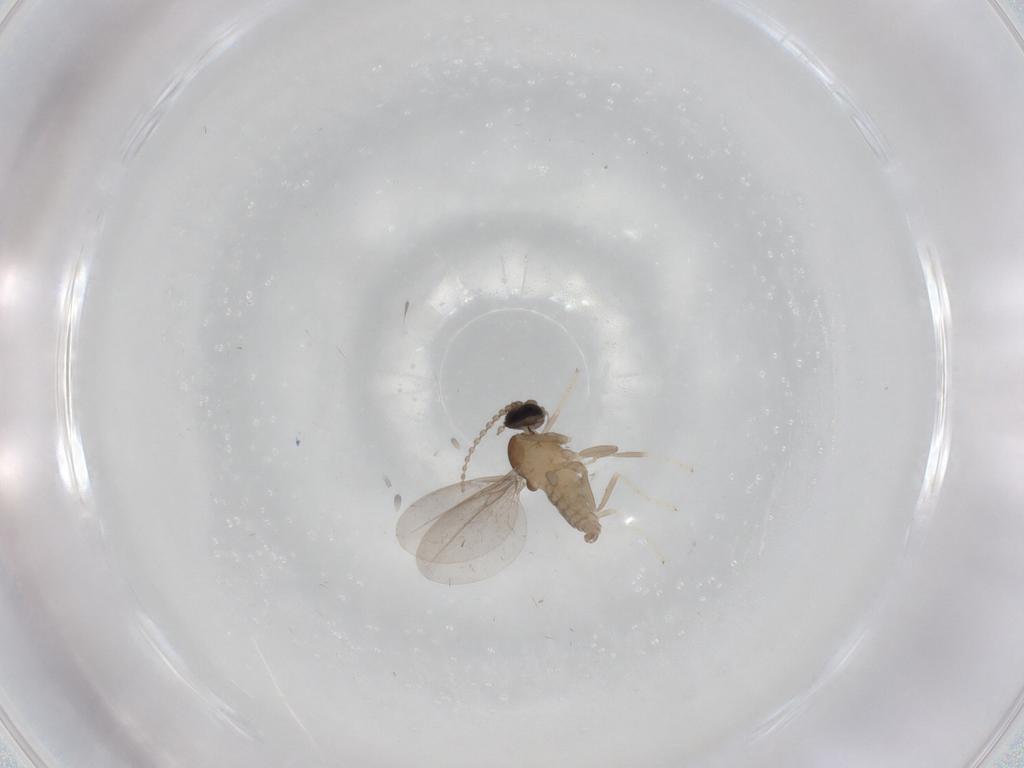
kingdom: Animalia
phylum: Arthropoda
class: Insecta
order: Diptera
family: Cecidomyiidae
